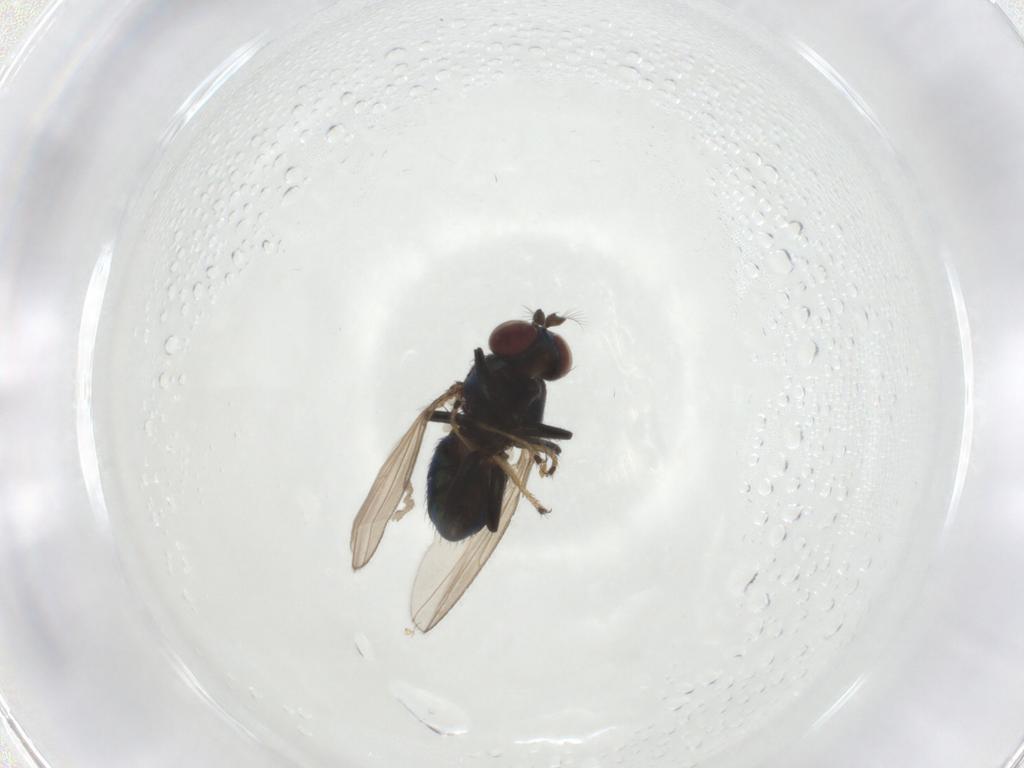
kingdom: Animalia
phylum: Arthropoda
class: Insecta
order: Diptera
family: Ephydridae
